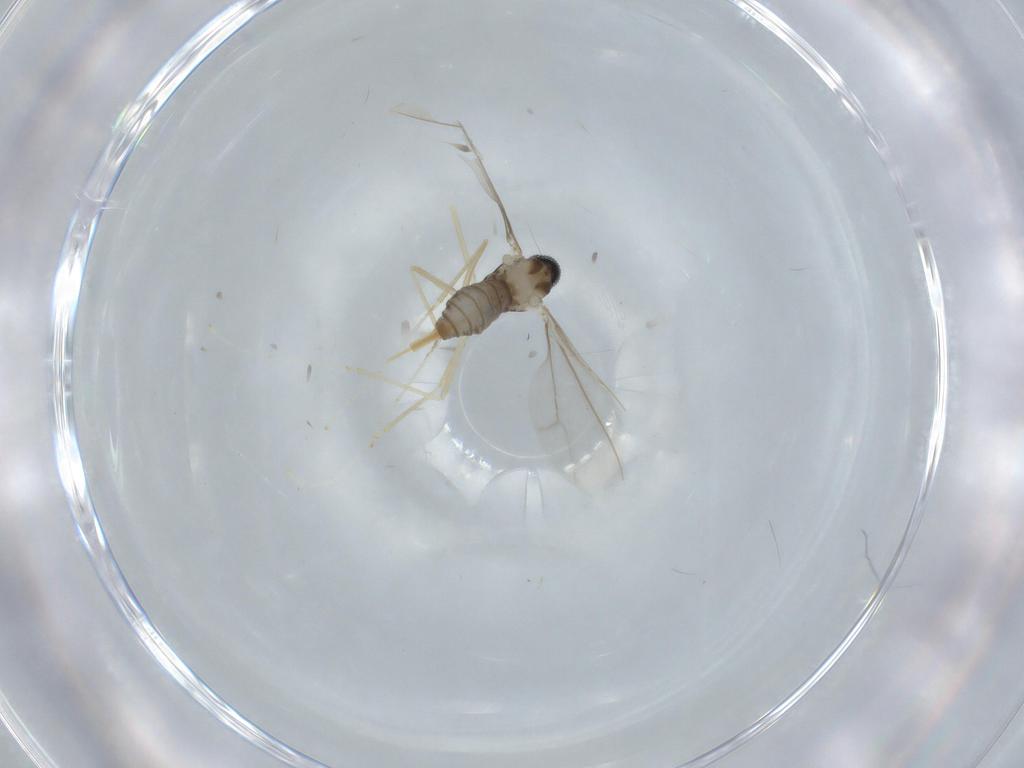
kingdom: Animalia
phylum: Arthropoda
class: Insecta
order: Diptera
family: Cecidomyiidae
